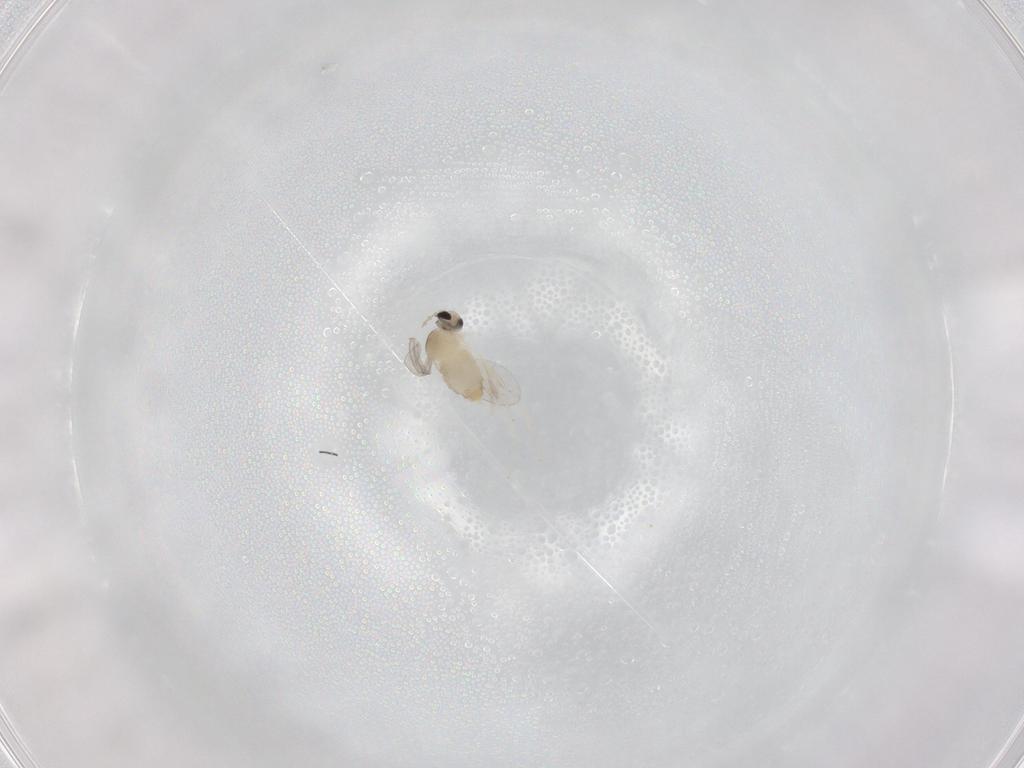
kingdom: Animalia
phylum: Arthropoda
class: Insecta
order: Diptera
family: Cecidomyiidae
